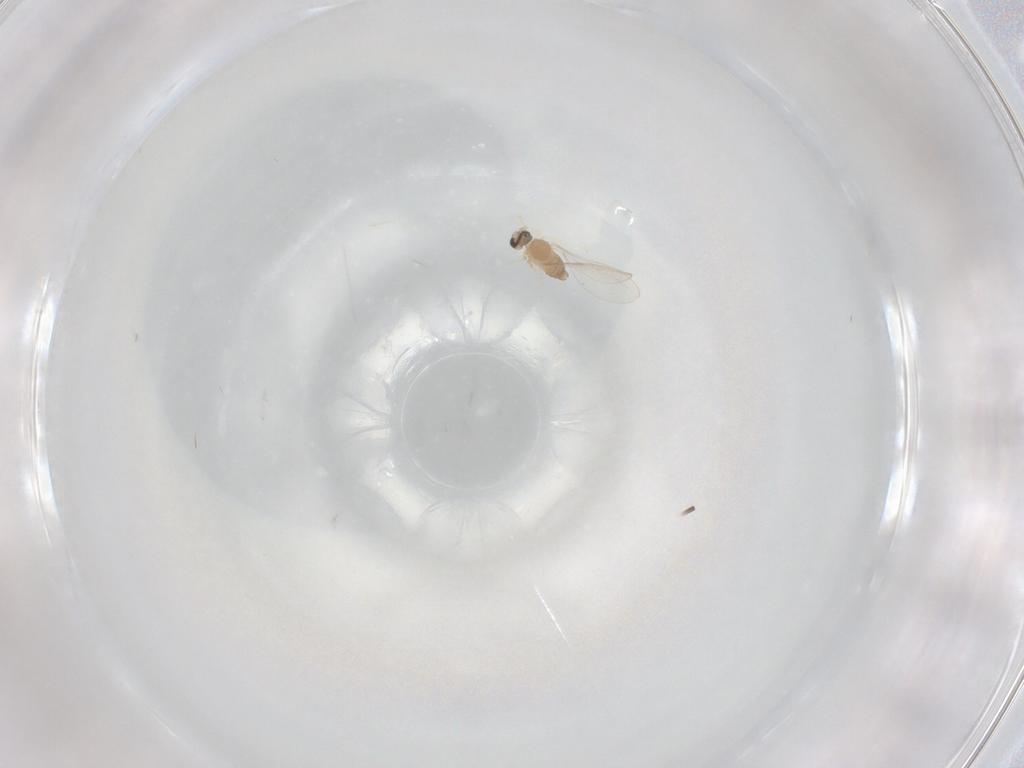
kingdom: Animalia
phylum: Arthropoda
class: Insecta
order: Diptera
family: Cecidomyiidae
